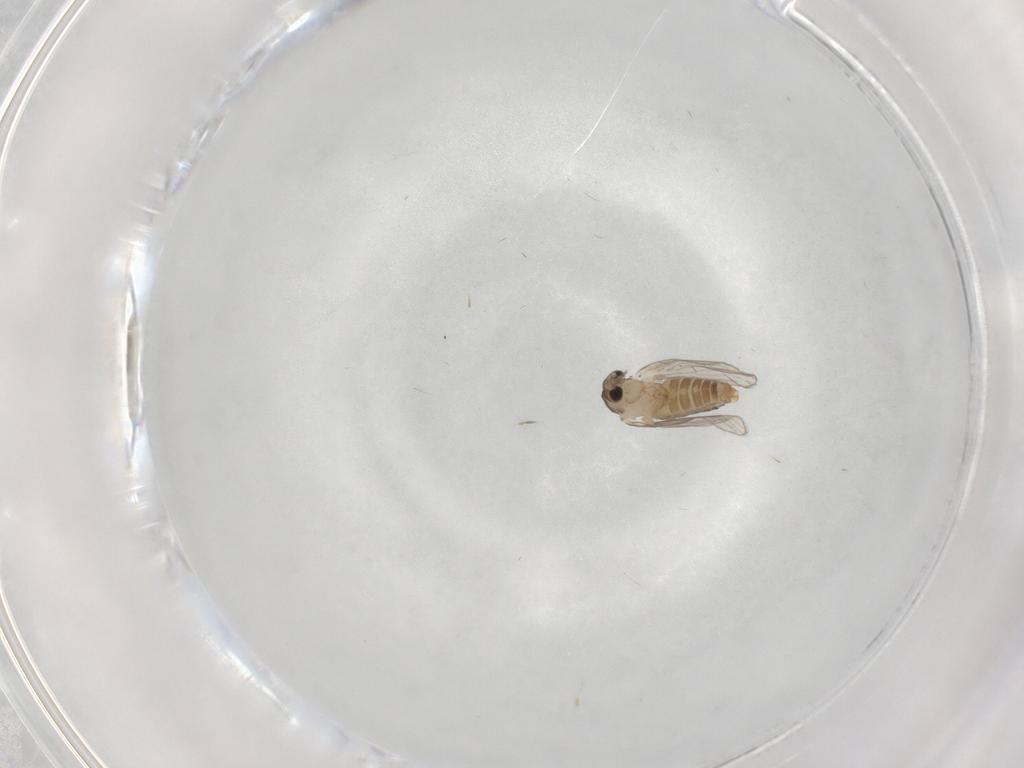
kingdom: Animalia
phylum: Arthropoda
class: Insecta
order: Diptera
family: Psychodidae
